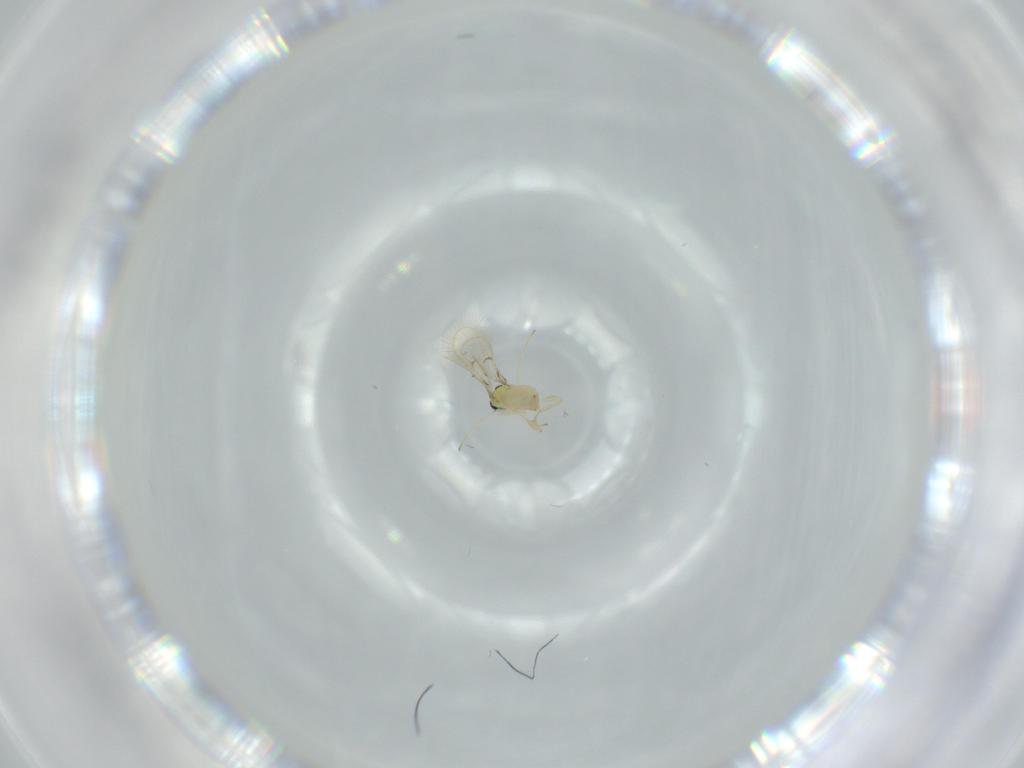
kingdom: Animalia
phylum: Arthropoda
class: Insecta
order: Hymenoptera
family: Trichogrammatidae
